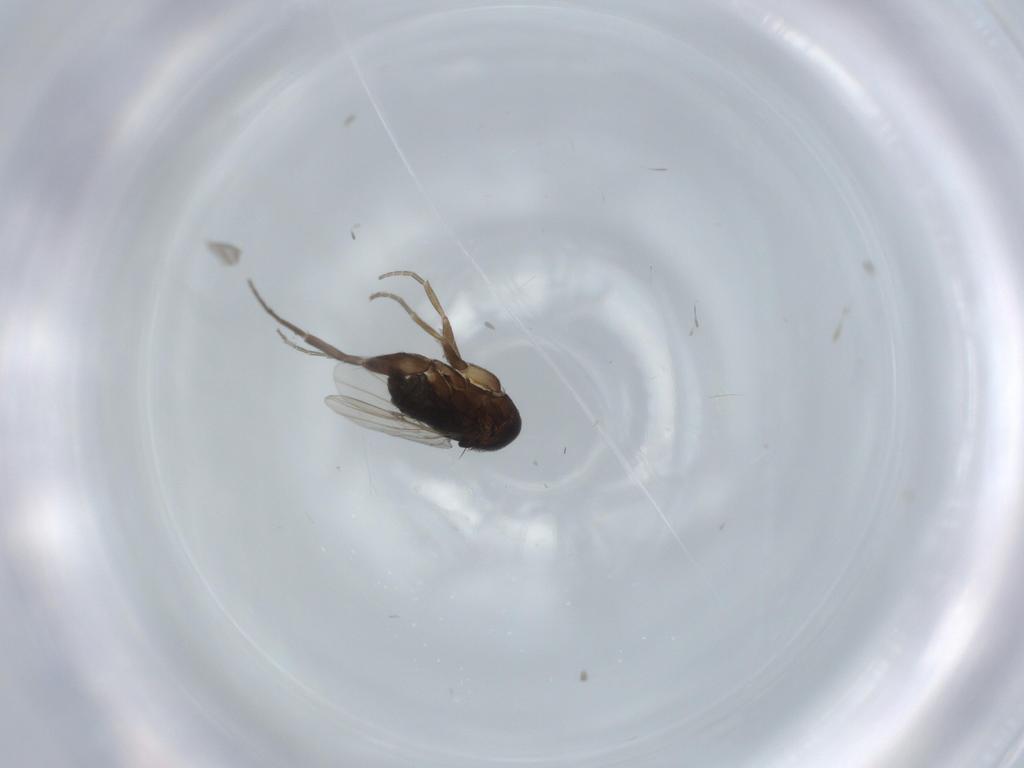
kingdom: Animalia
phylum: Arthropoda
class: Insecta
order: Diptera
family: Phoridae
